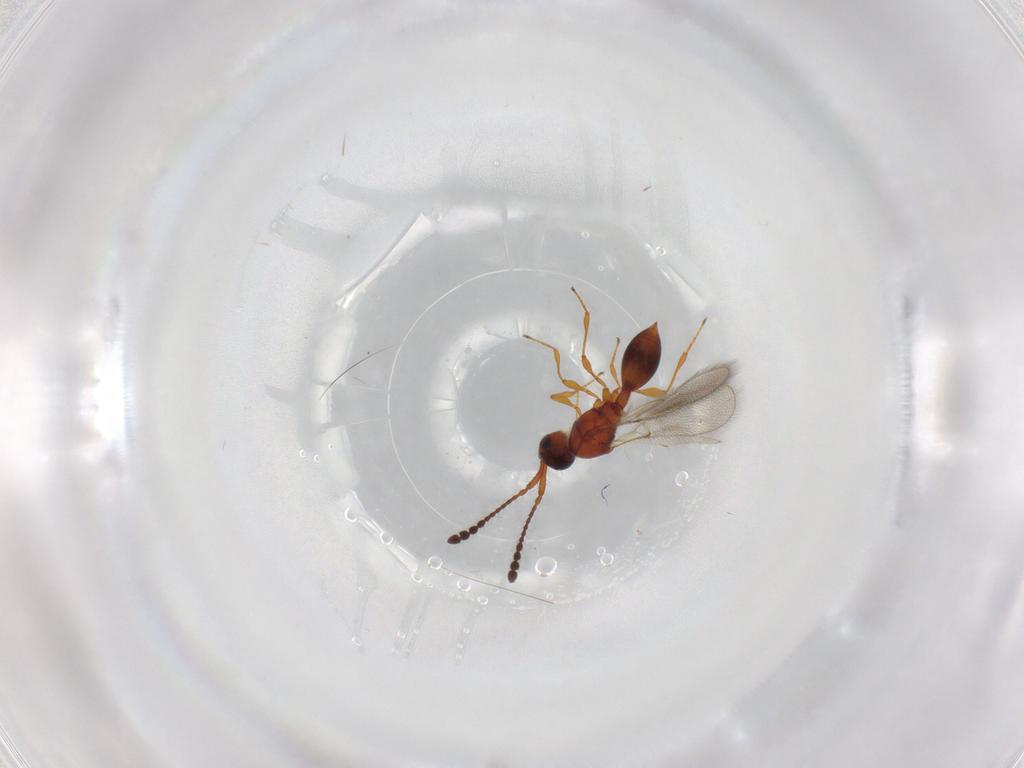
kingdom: Animalia
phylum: Arthropoda
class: Insecta
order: Hymenoptera
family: Diapriidae
